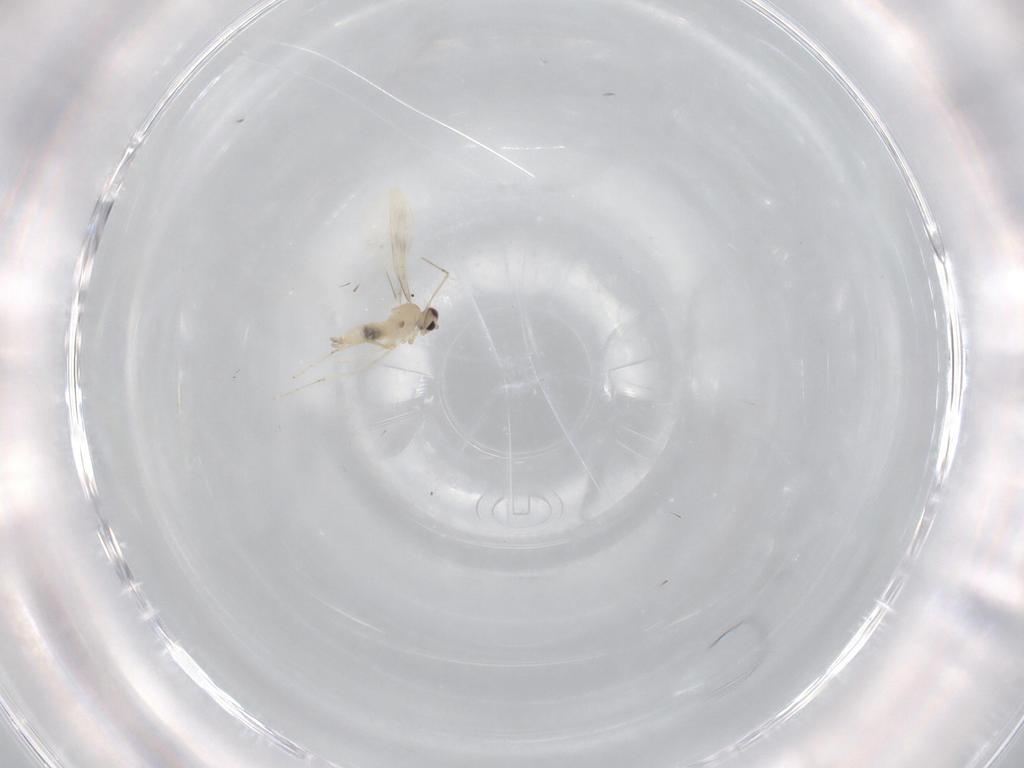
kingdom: Animalia
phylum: Arthropoda
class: Insecta
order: Diptera
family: Cecidomyiidae
